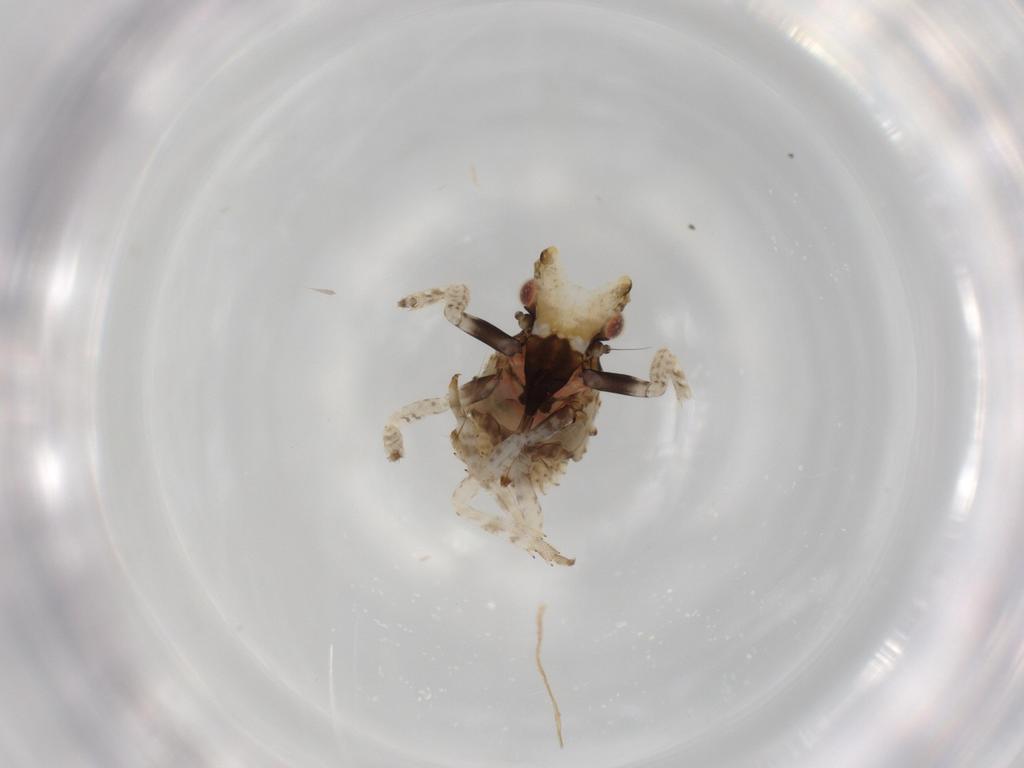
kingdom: Animalia
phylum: Arthropoda
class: Insecta
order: Hemiptera
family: Fulgoridae
